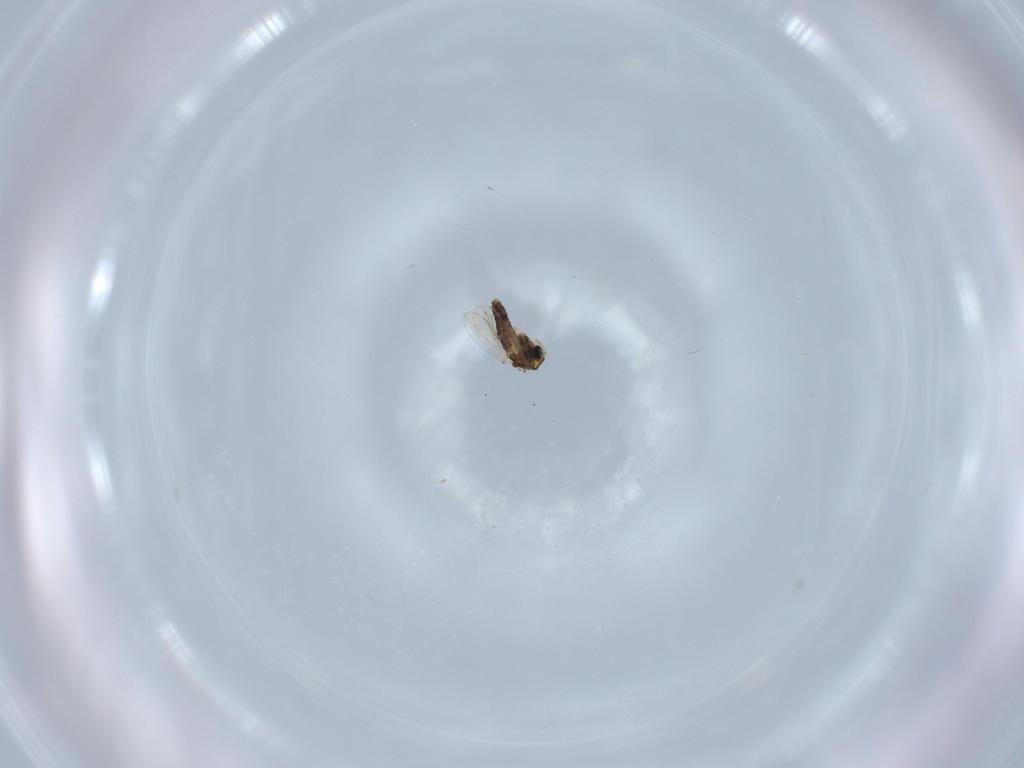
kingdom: Animalia
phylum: Arthropoda
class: Insecta
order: Diptera
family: Chironomidae
